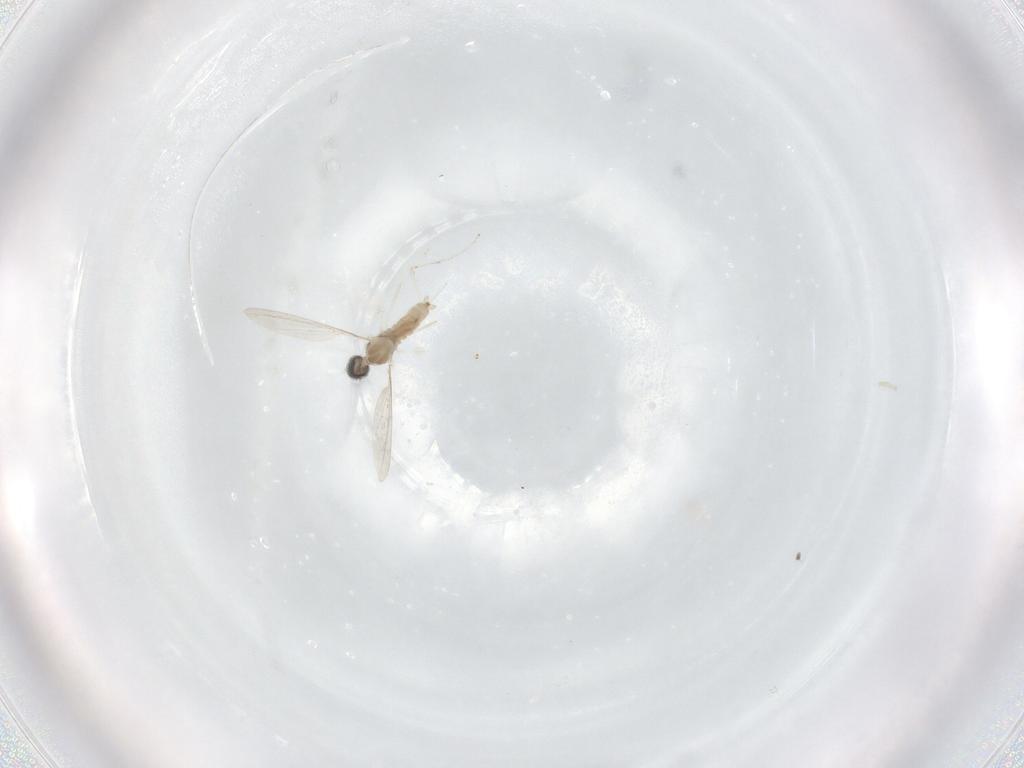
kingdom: Animalia
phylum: Arthropoda
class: Insecta
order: Diptera
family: Cecidomyiidae
